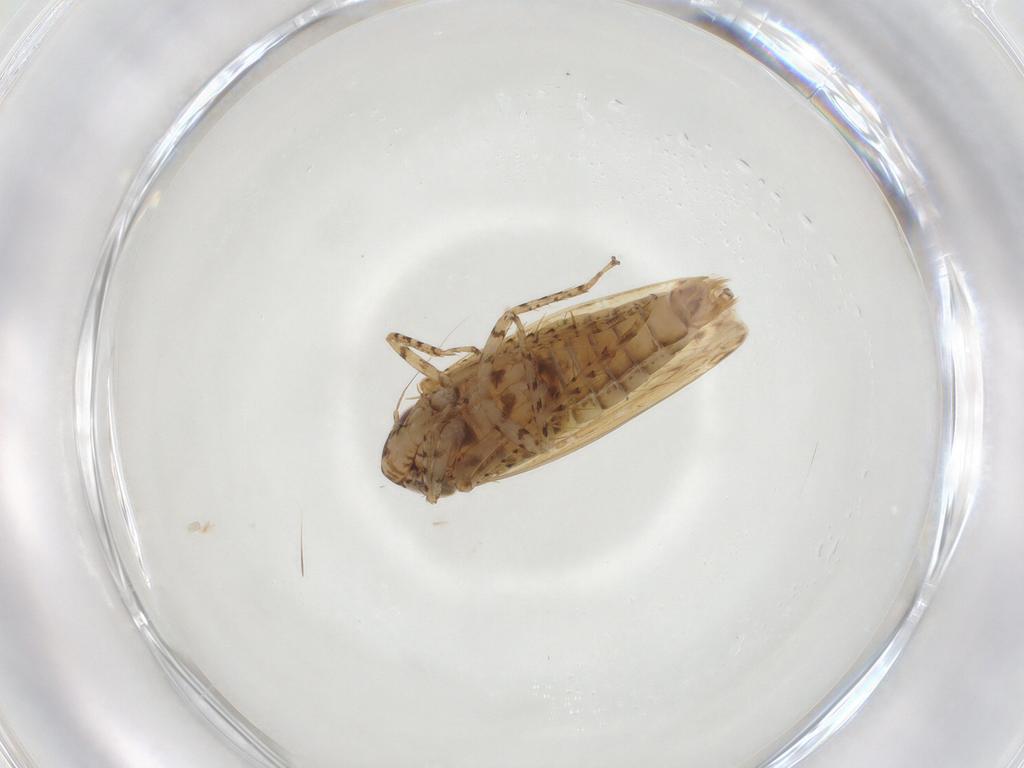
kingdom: Animalia
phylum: Arthropoda
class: Insecta
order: Hemiptera
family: Cicadellidae
